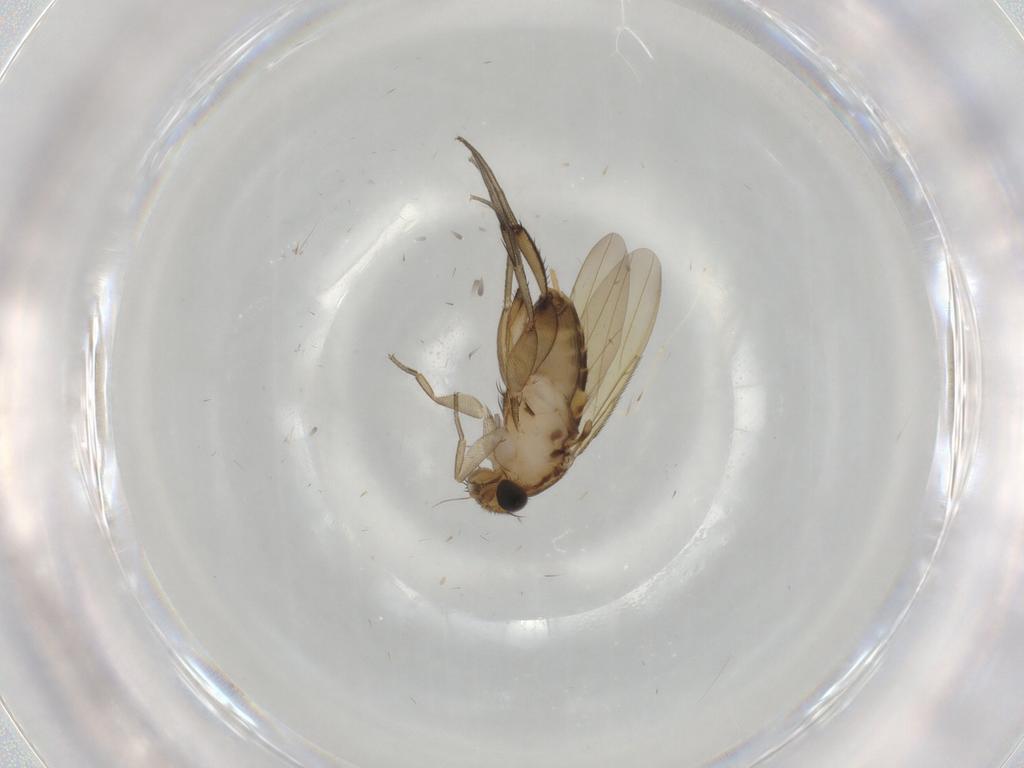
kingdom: Animalia
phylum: Arthropoda
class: Insecta
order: Diptera
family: Phoridae
